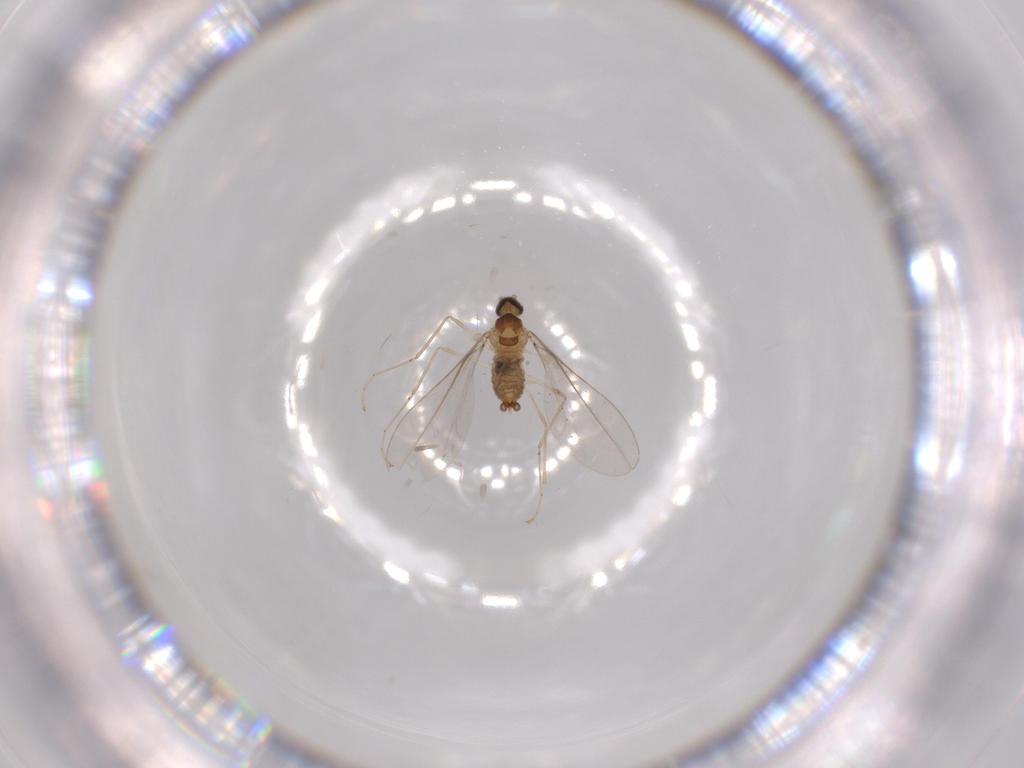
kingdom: Animalia
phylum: Arthropoda
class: Insecta
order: Diptera
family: Cecidomyiidae
